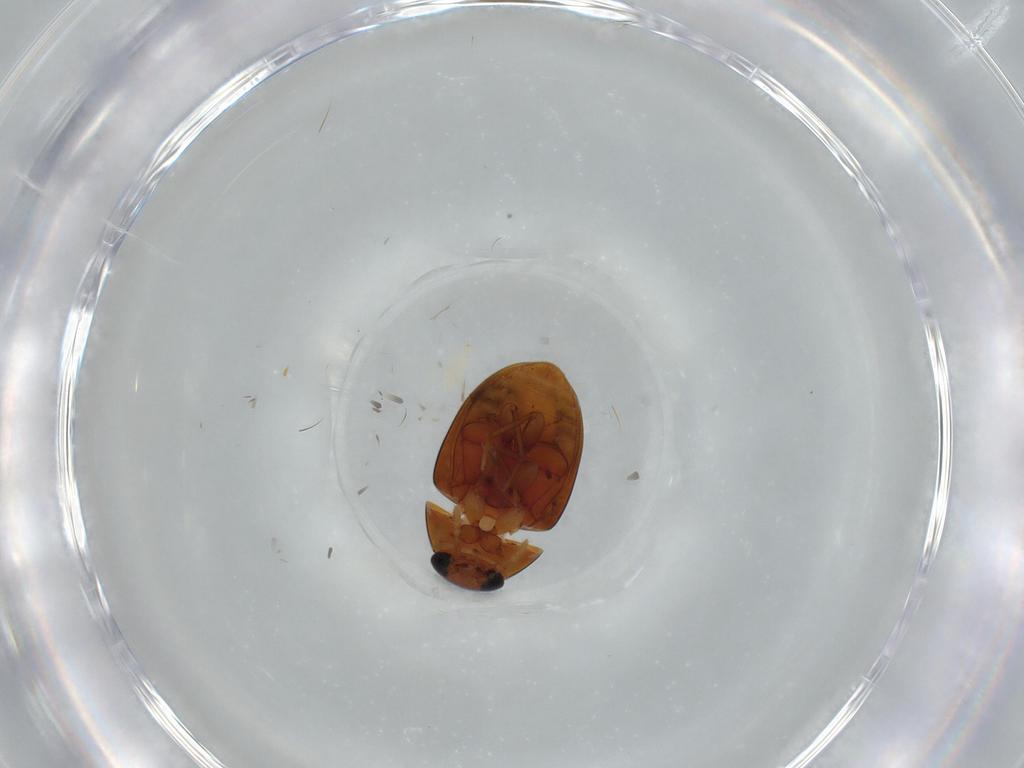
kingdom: Animalia
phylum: Arthropoda
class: Insecta
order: Coleoptera
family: Phalacridae
